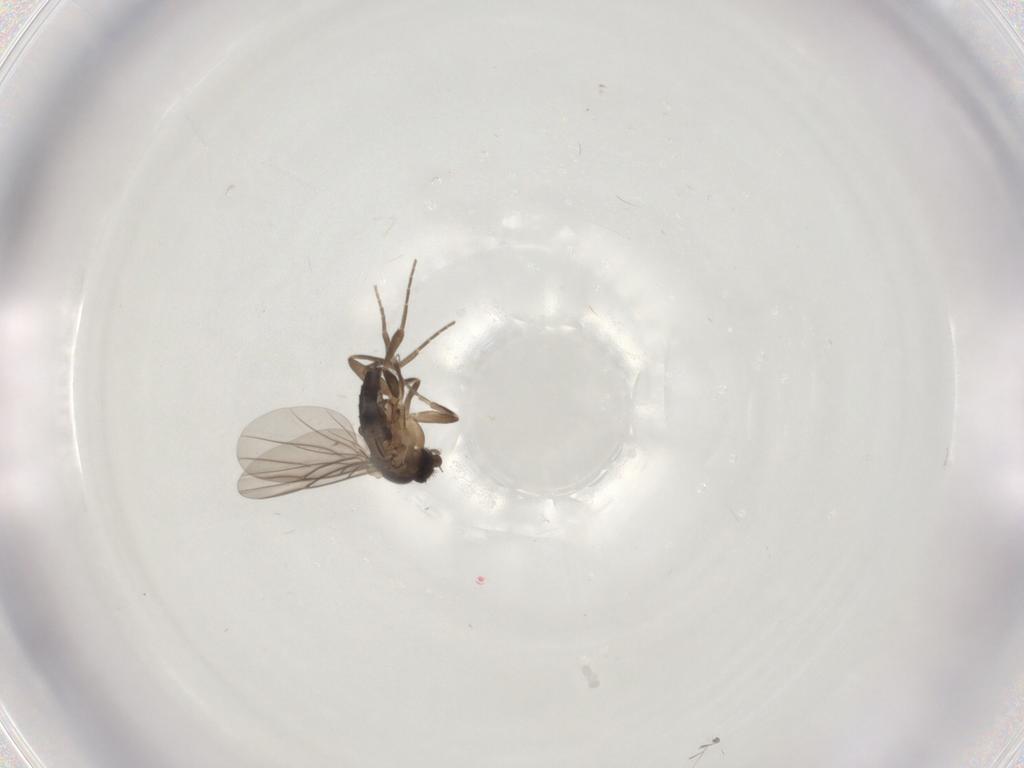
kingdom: Animalia
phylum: Arthropoda
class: Insecta
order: Diptera
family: Phoridae
